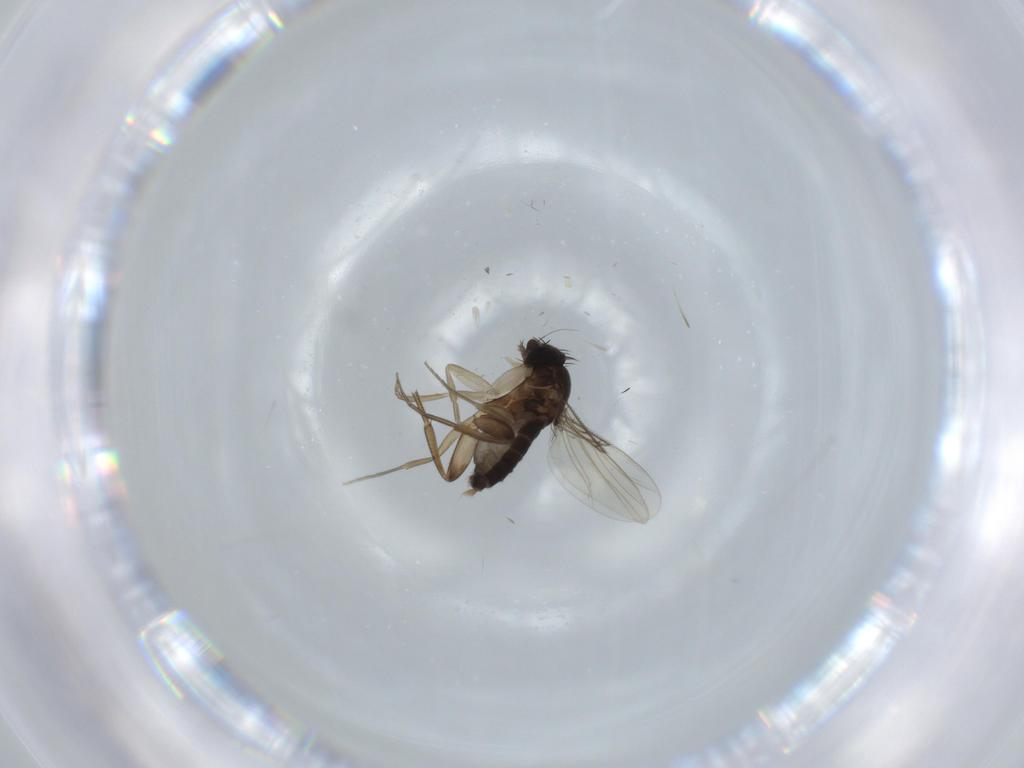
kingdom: Animalia
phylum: Arthropoda
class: Insecta
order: Diptera
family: Phoridae
